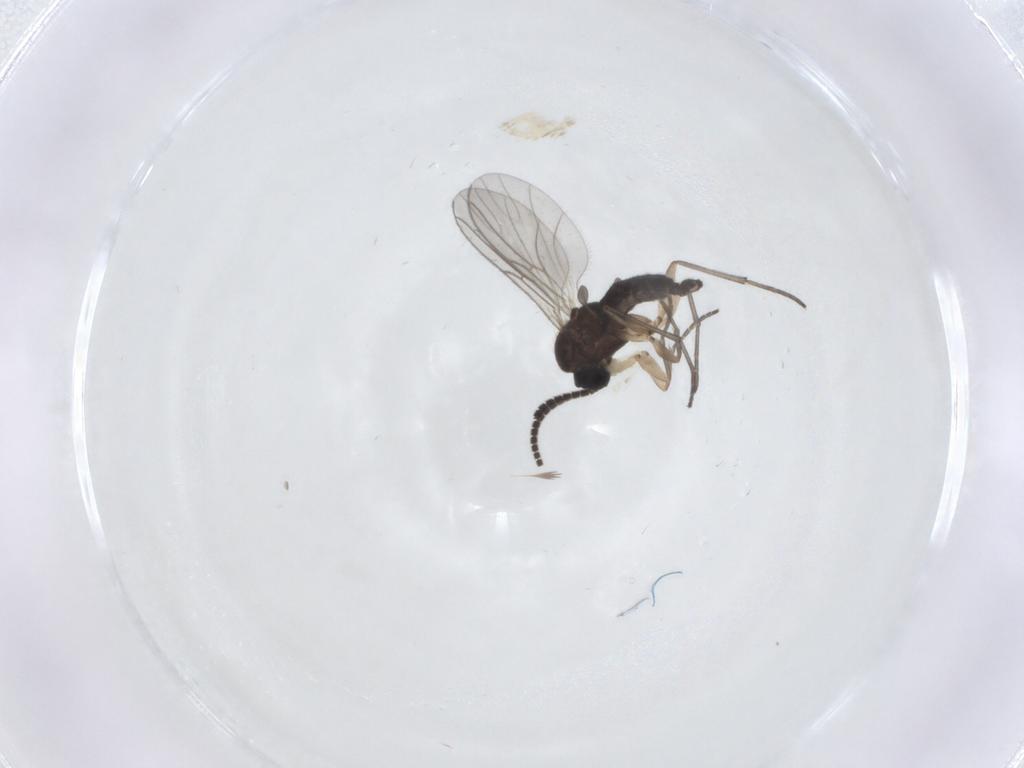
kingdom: Animalia
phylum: Arthropoda
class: Insecta
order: Diptera
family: Sciaridae
